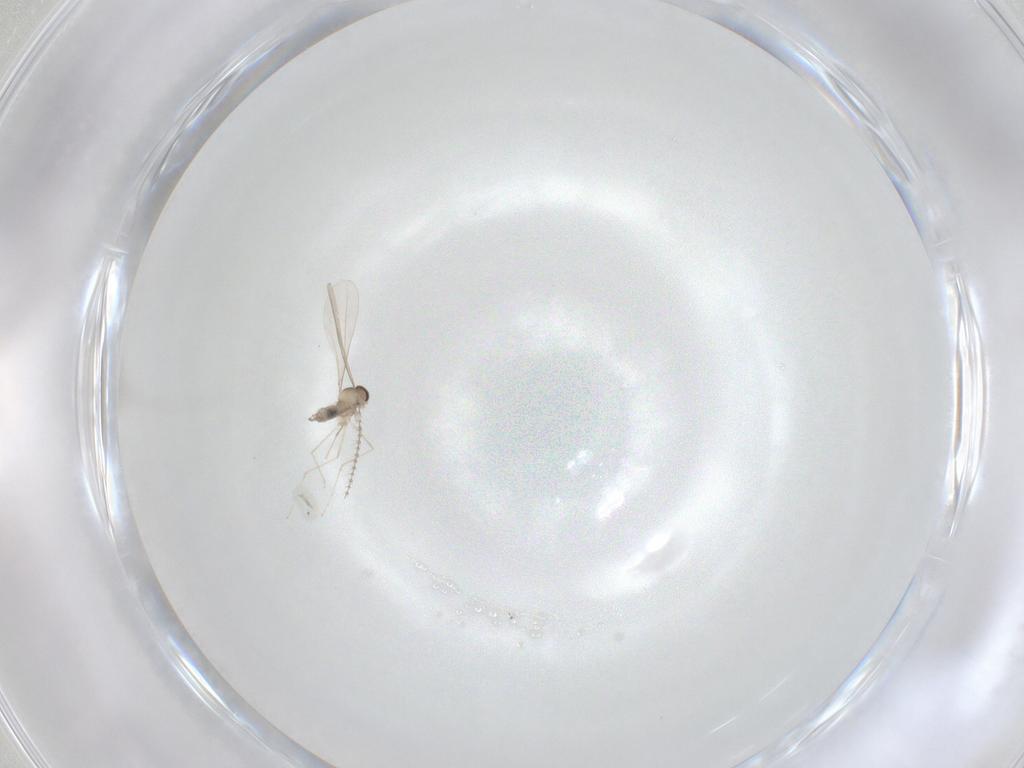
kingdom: Animalia
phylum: Arthropoda
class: Insecta
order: Diptera
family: Cecidomyiidae
